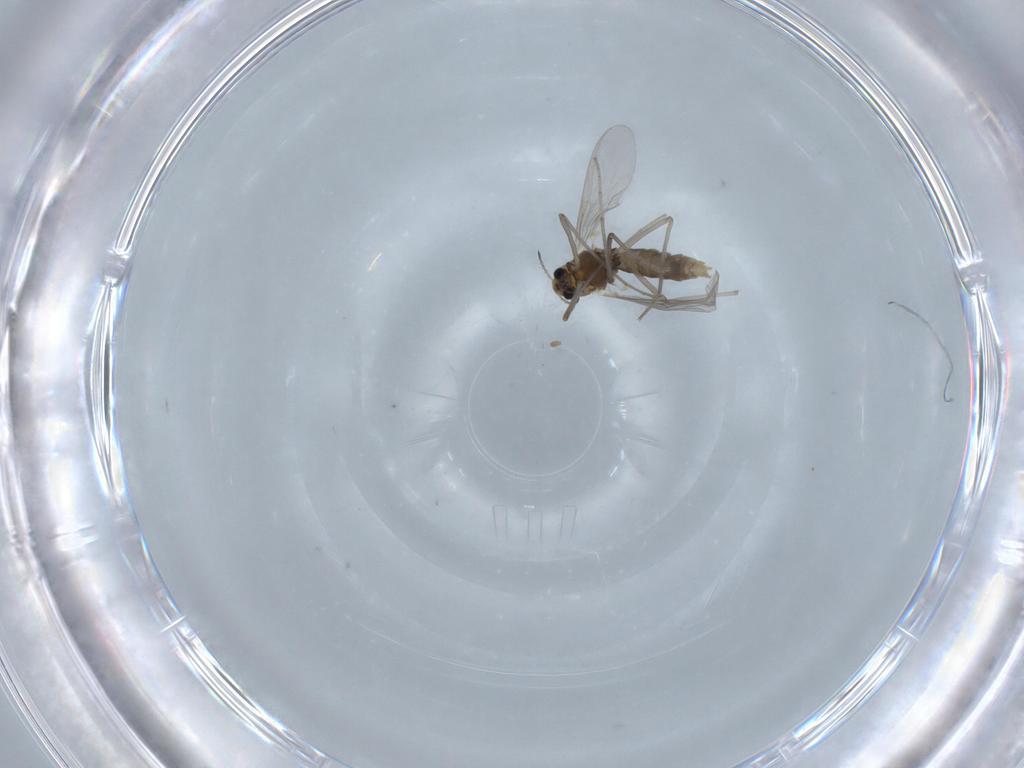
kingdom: Animalia
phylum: Arthropoda
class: Insecta
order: Diptera
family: Chironomidae
